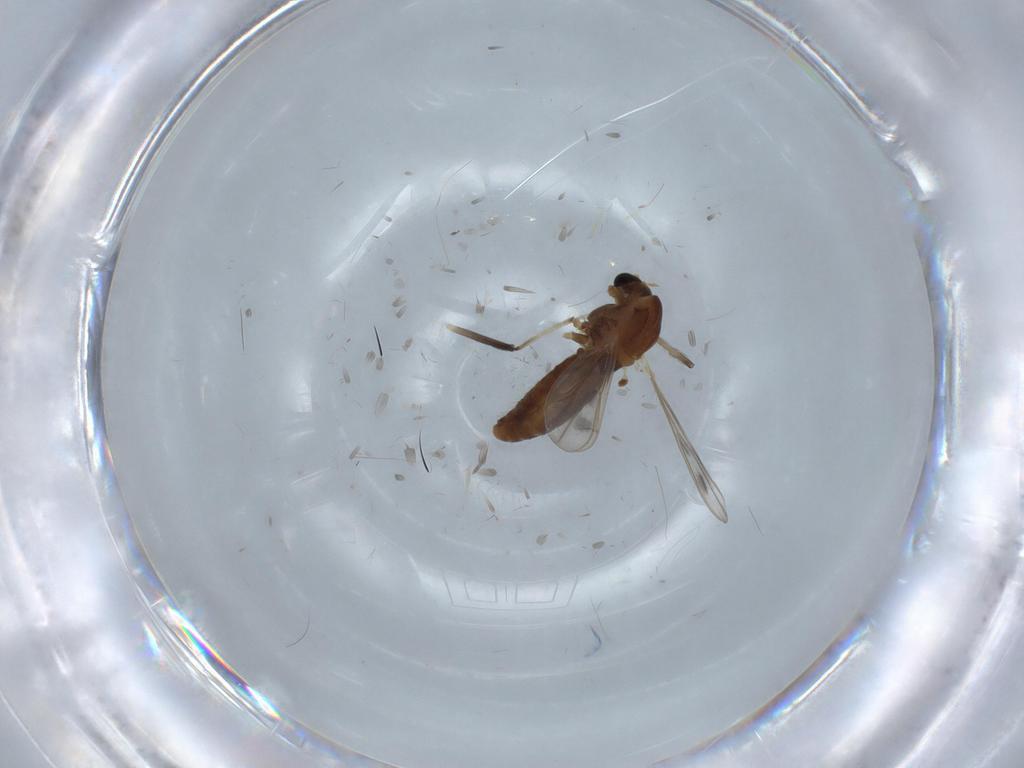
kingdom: Animalia
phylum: Arthropoda
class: Insecta
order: Diptera
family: Chironomidae
